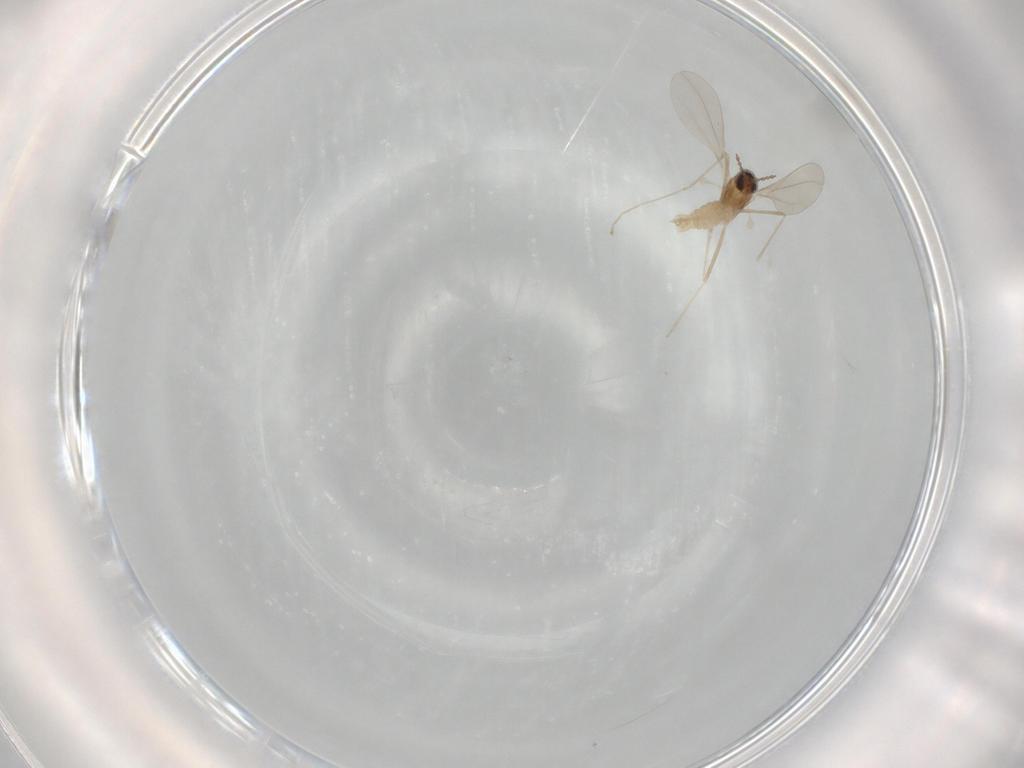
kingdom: Animalia
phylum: Arthropoda
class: Insecta
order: Diptera
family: Cecidomyiidae
